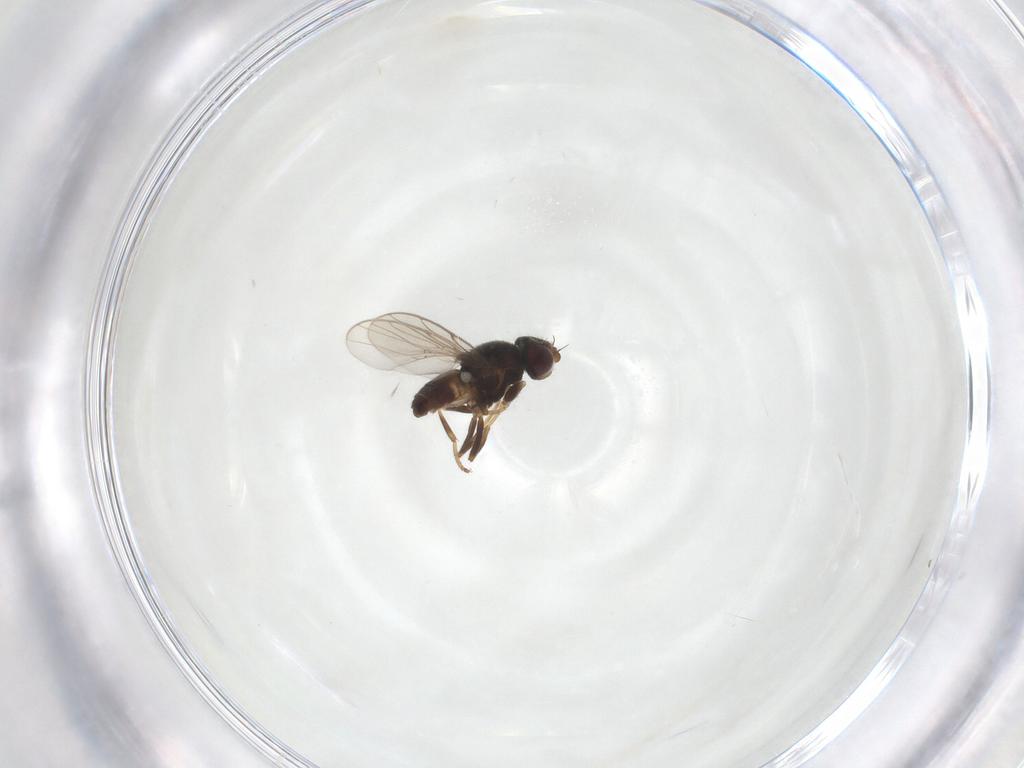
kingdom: Animalia
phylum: Arthropoda
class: Insecta
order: Diptera
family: Chloropidae
